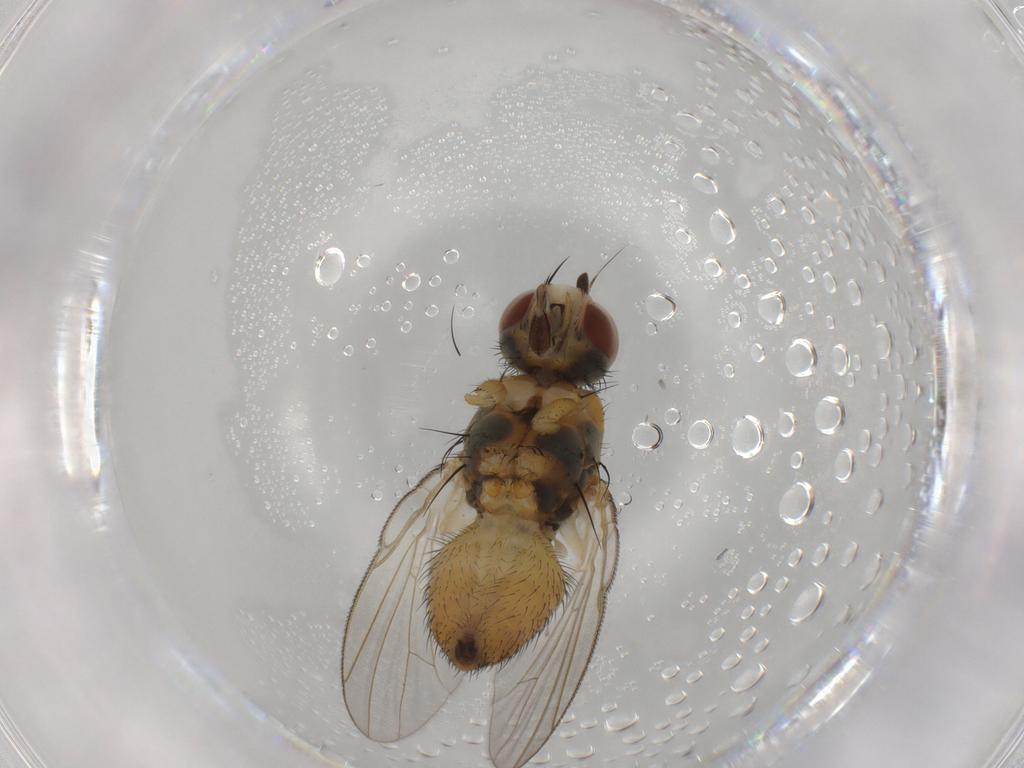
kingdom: Animalia
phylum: Arthropoda
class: Insecta
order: Diptera
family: Muscidae
